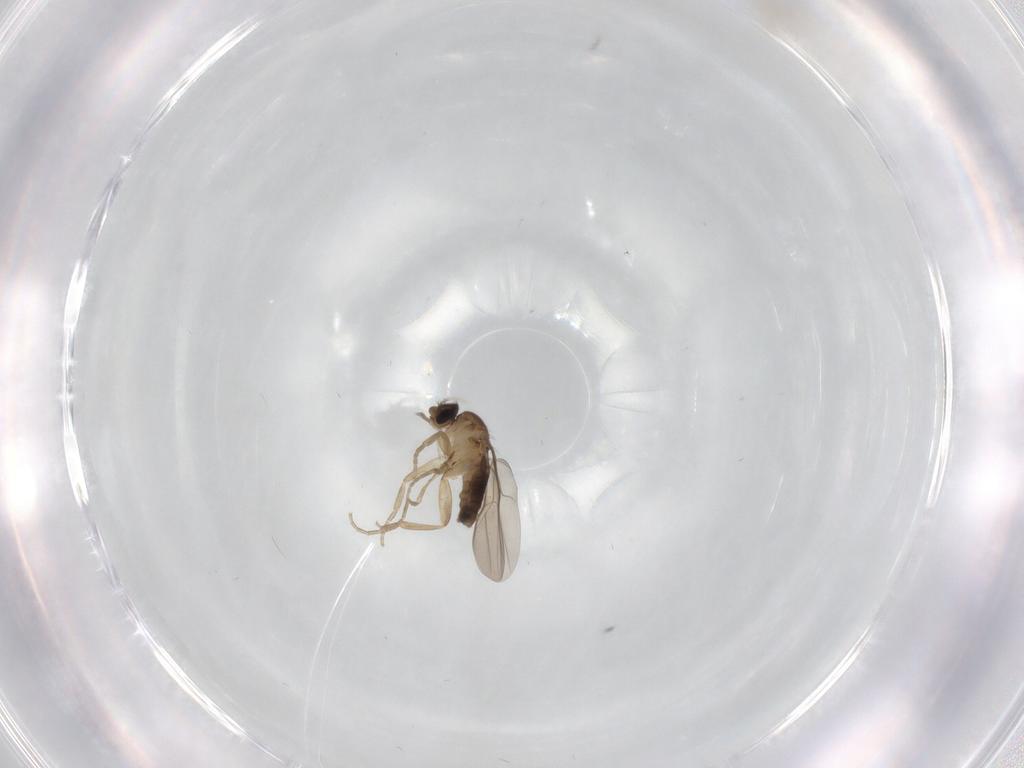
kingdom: Animalia
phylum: Arthropoda
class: Insecta
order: Diptera
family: Phoridae
